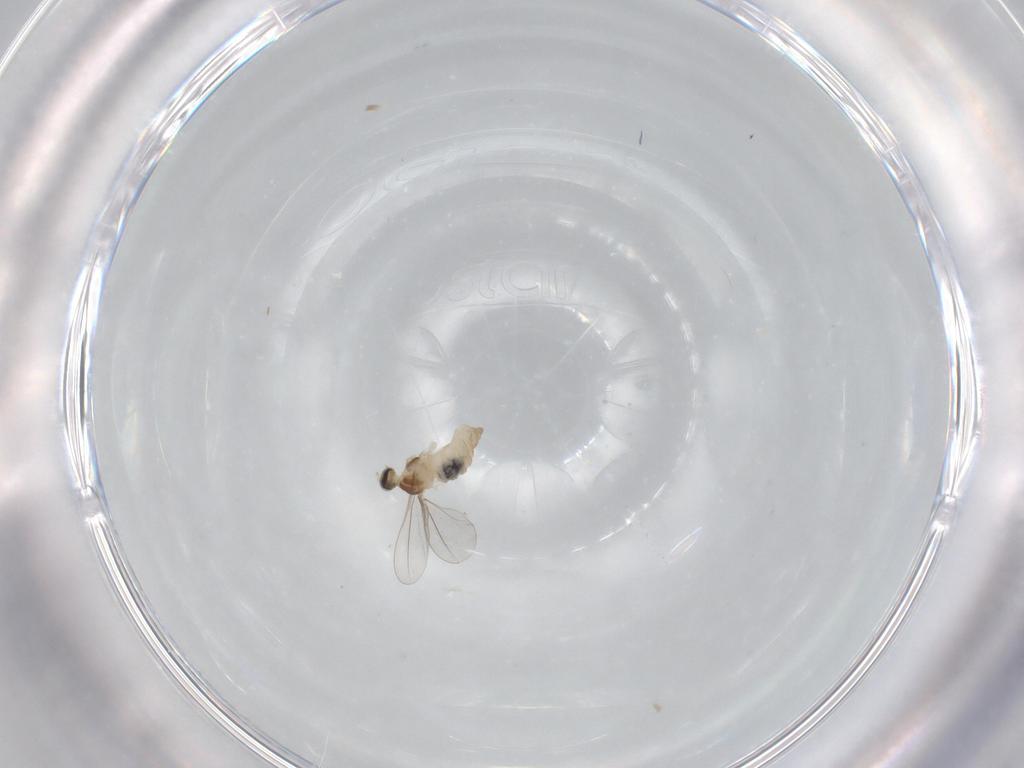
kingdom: Animalia
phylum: Arthropoda
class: Insecta
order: Diptera
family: Cecidomyiidae
